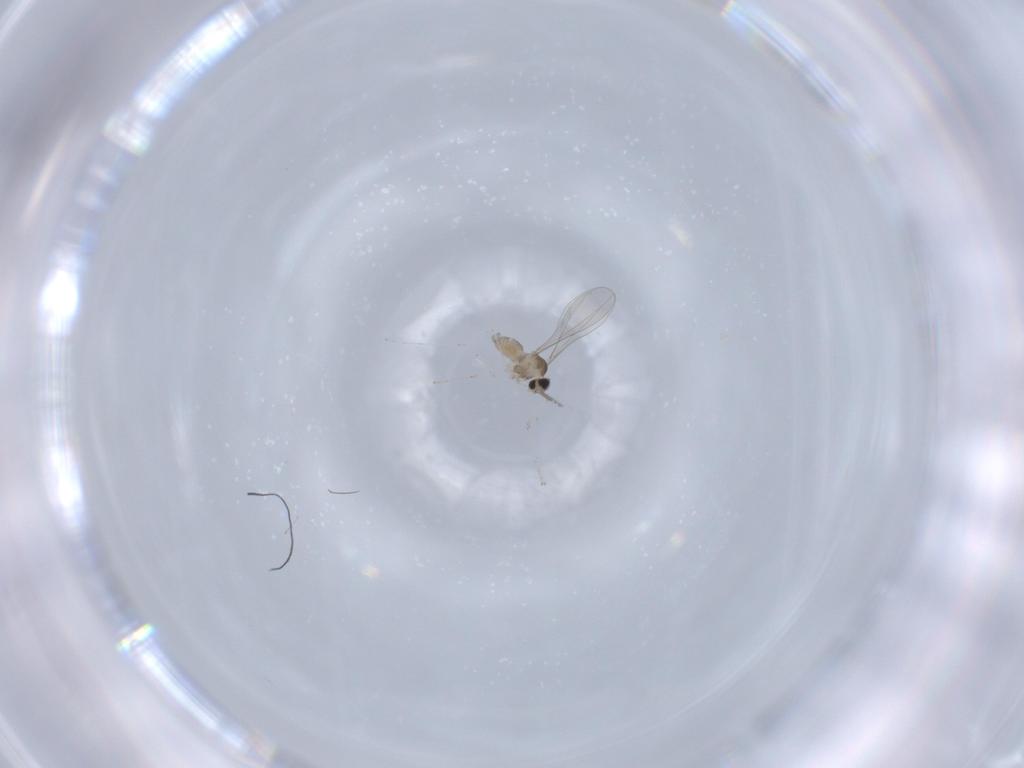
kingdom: Animalia
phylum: Arthropoda
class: Insecta
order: Diptera
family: Cecidomyiidae
